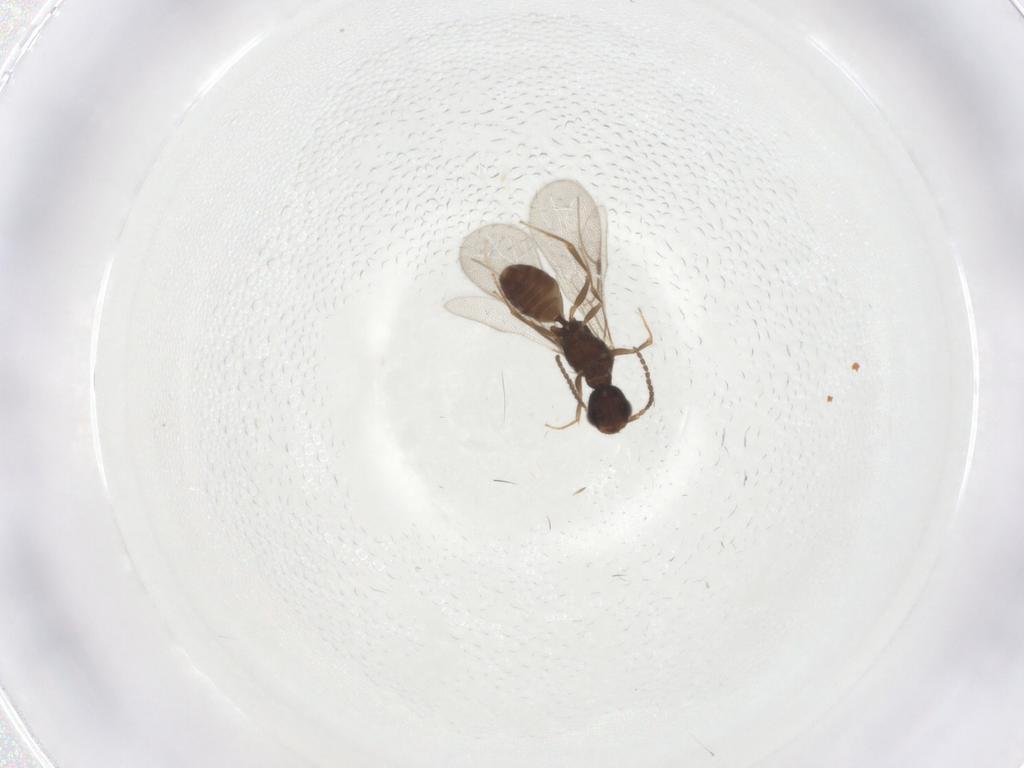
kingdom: Animalia
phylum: Arthropoda
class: Insecta
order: Hymenoptera
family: Bethylidae
